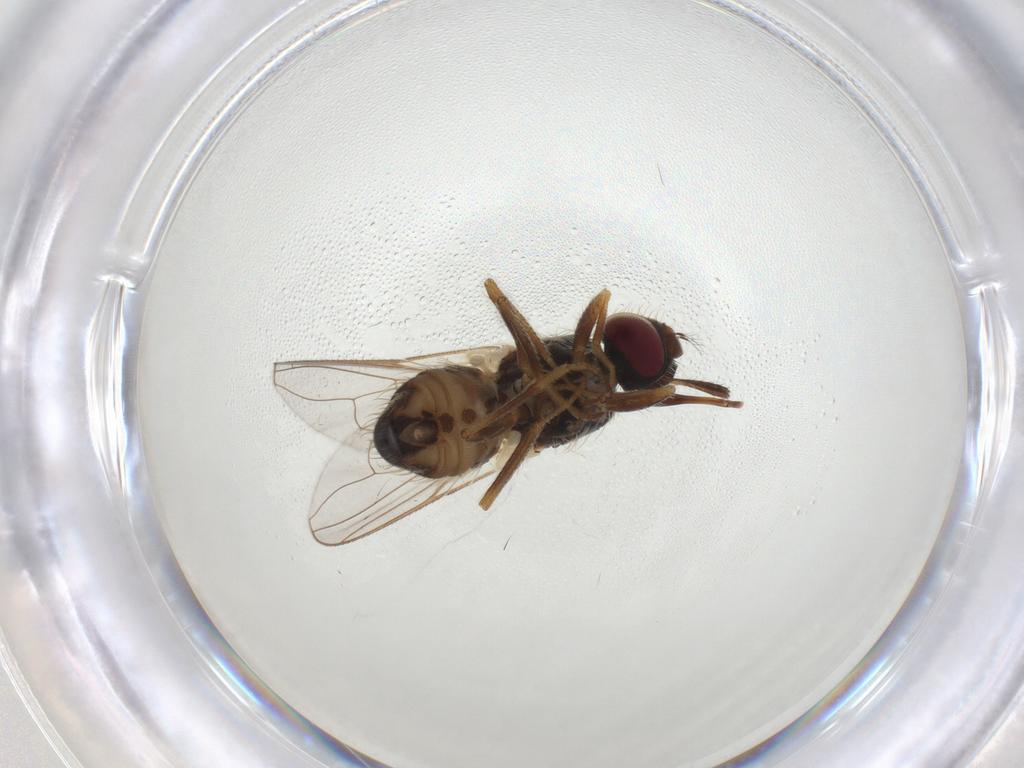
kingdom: Animalia
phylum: Arthropoda
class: Insecta
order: Diptera
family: Muscidae
